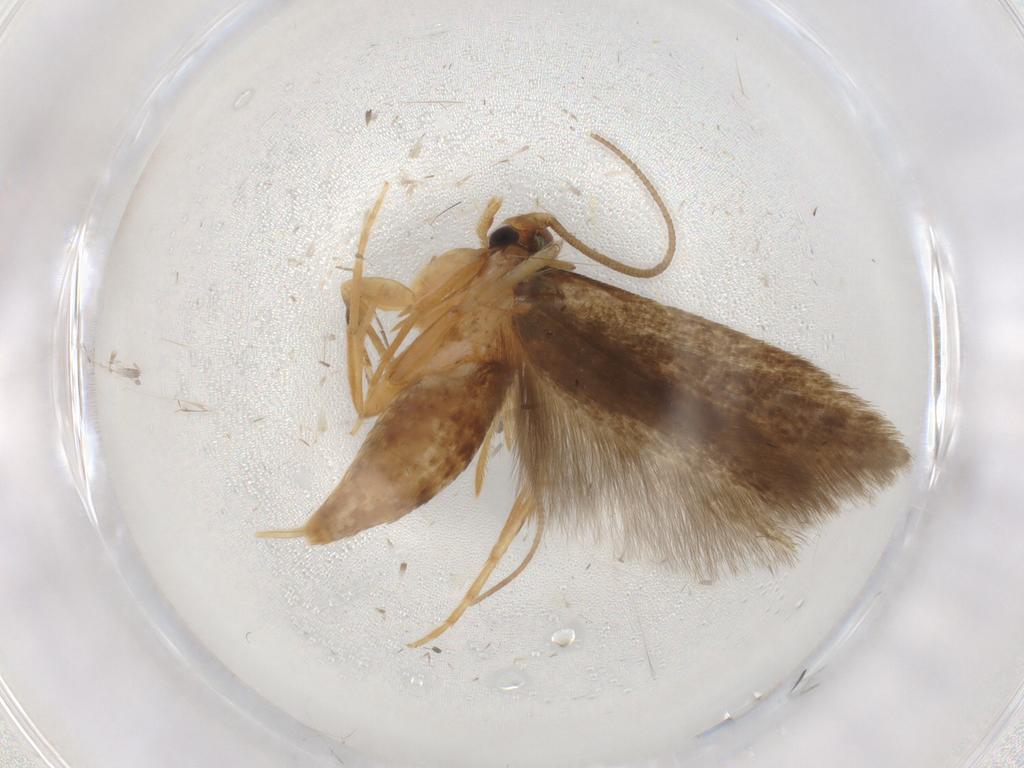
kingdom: Animalia
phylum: Arthropoda
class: Insecta
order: Lepidoptera
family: Tineidae
